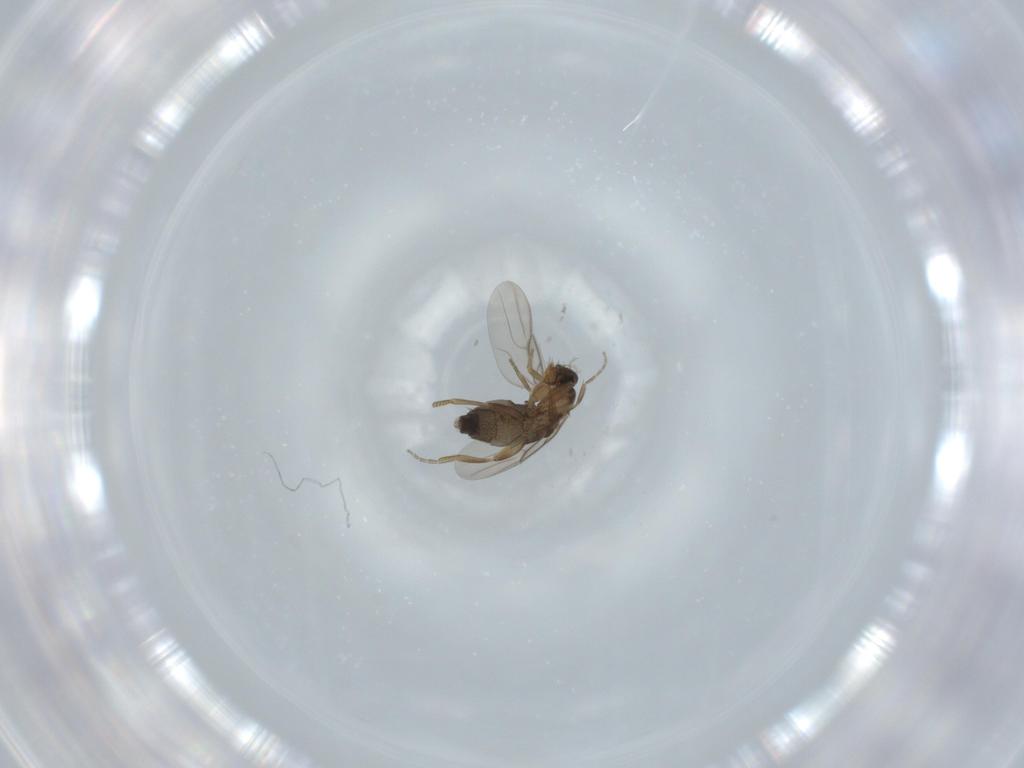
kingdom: Animalia
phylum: Arthropoda
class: Insecta
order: Diptera
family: Phoridae
